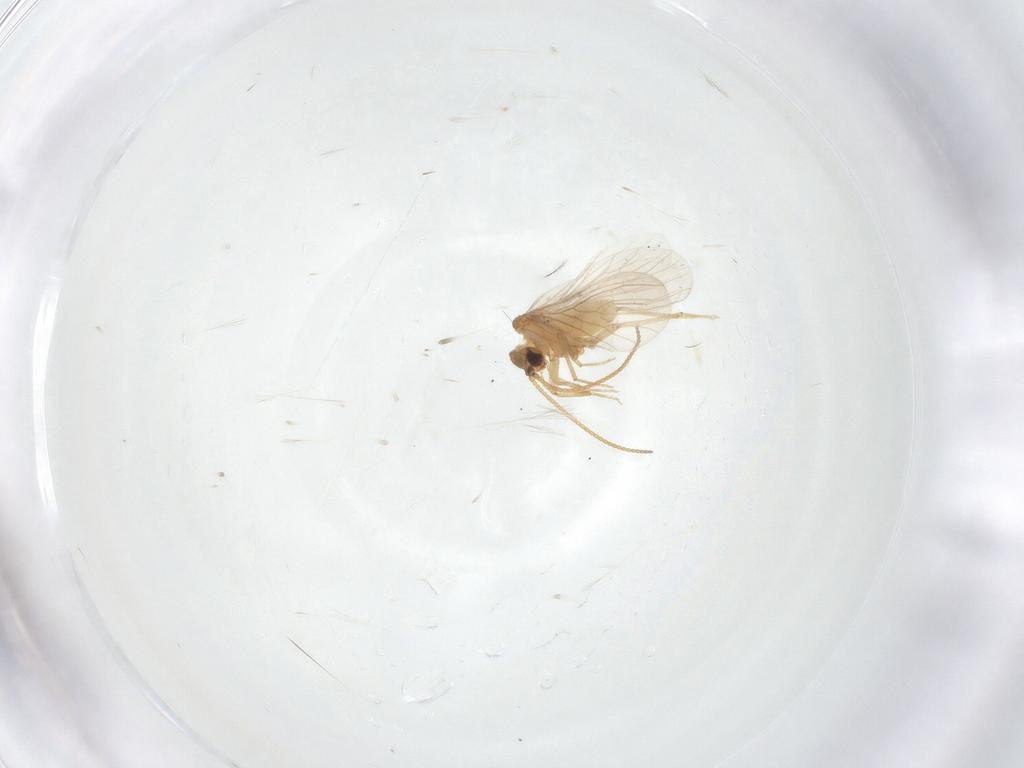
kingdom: Animalia
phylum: Arthropoda
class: Insecta
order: Neuroptera
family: Coniopterygidae
